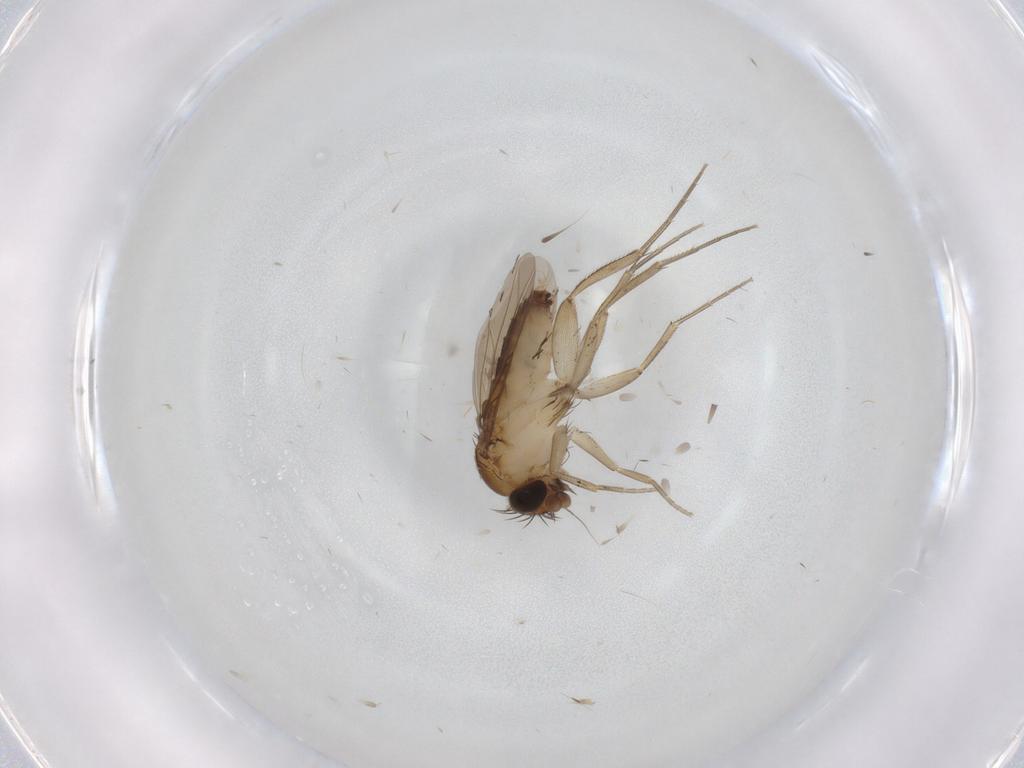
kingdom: Animalia
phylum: Arthropoda
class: Insecta
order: Diptera
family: Phoridae
